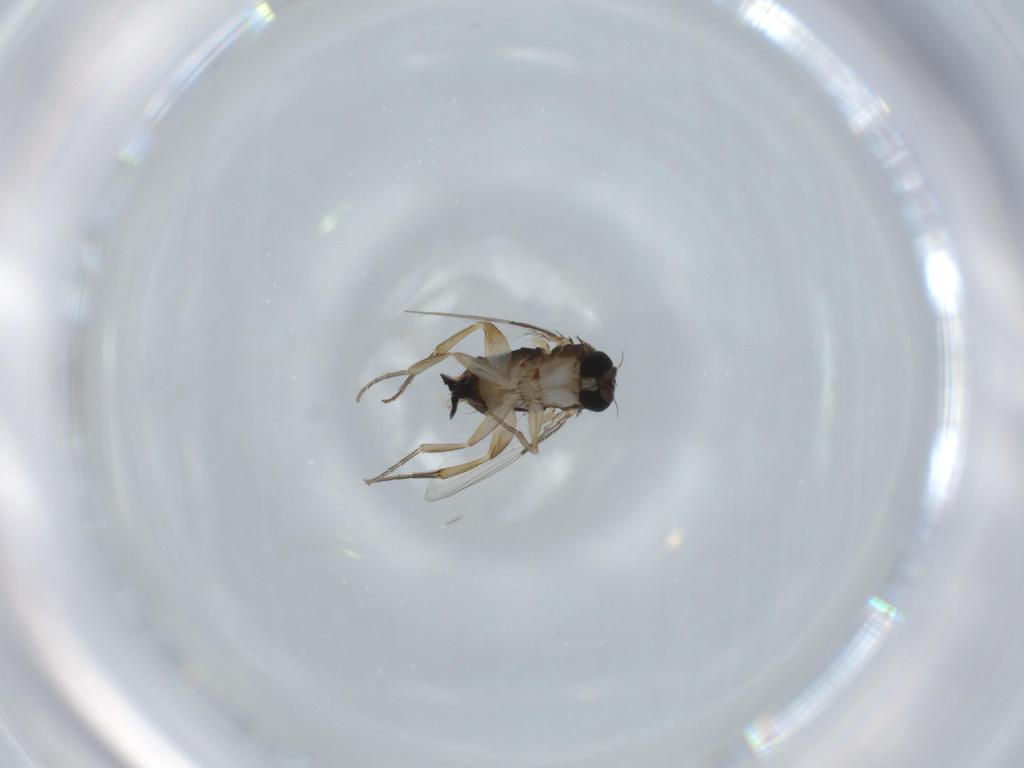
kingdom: Animalia
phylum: Arthropoda
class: Insecta
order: Diptera
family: Phoridae
